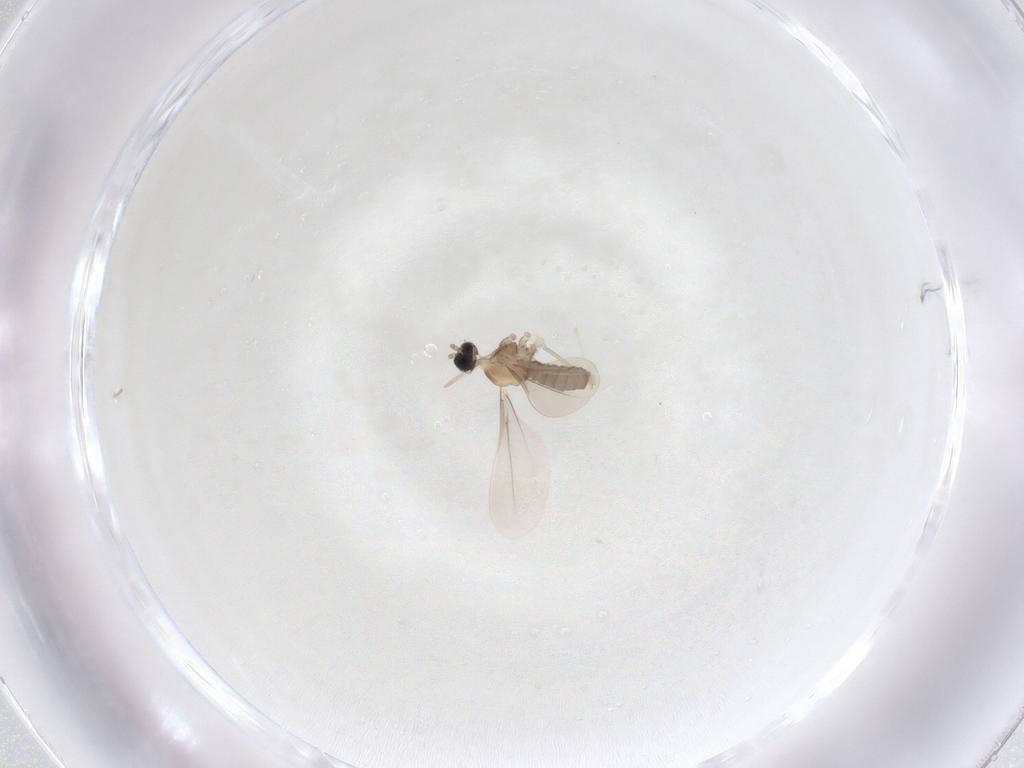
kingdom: Animalia
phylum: Arthropoda
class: Insecta
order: Diptera
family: Cecidomyiidae
